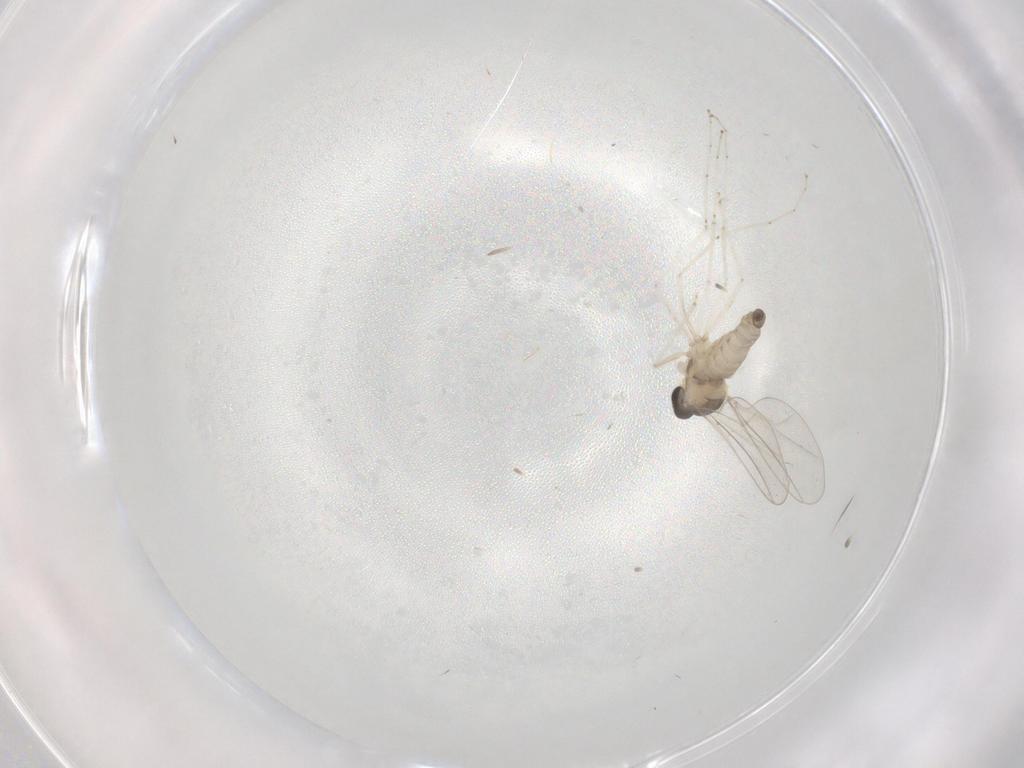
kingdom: Animalia
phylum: Arthropoda
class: Insecta
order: Diptera
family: Cecidomyiidae
